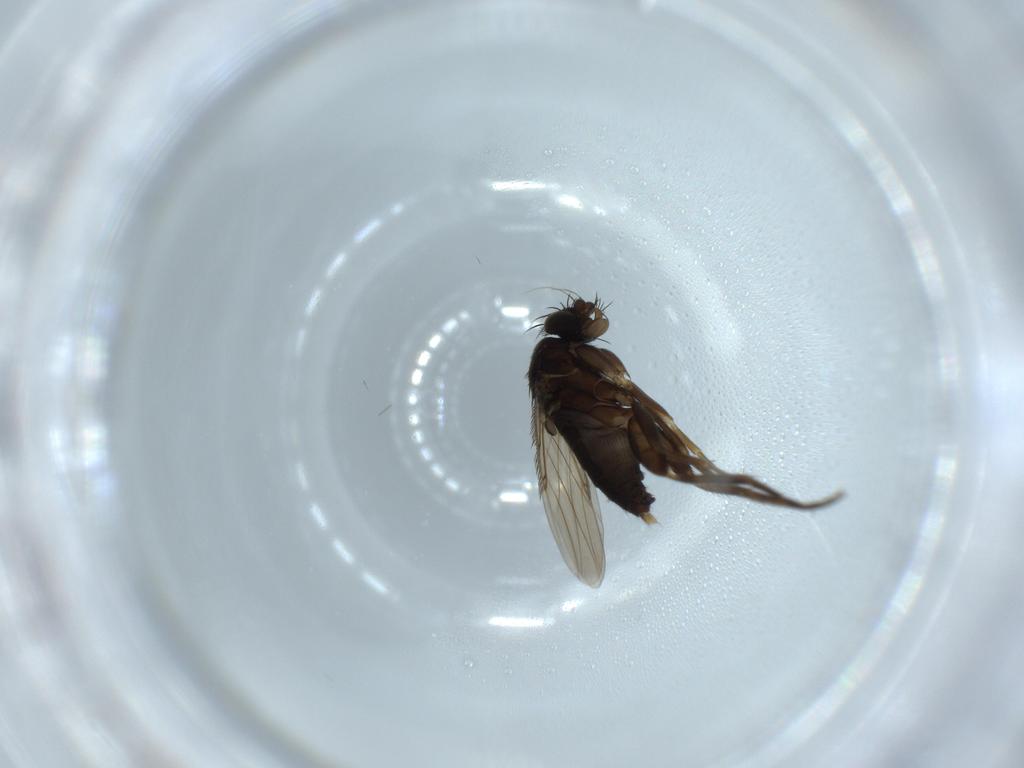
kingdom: Animalia
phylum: Arthropoda
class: Insecta
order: Diptera
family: Phoridae
